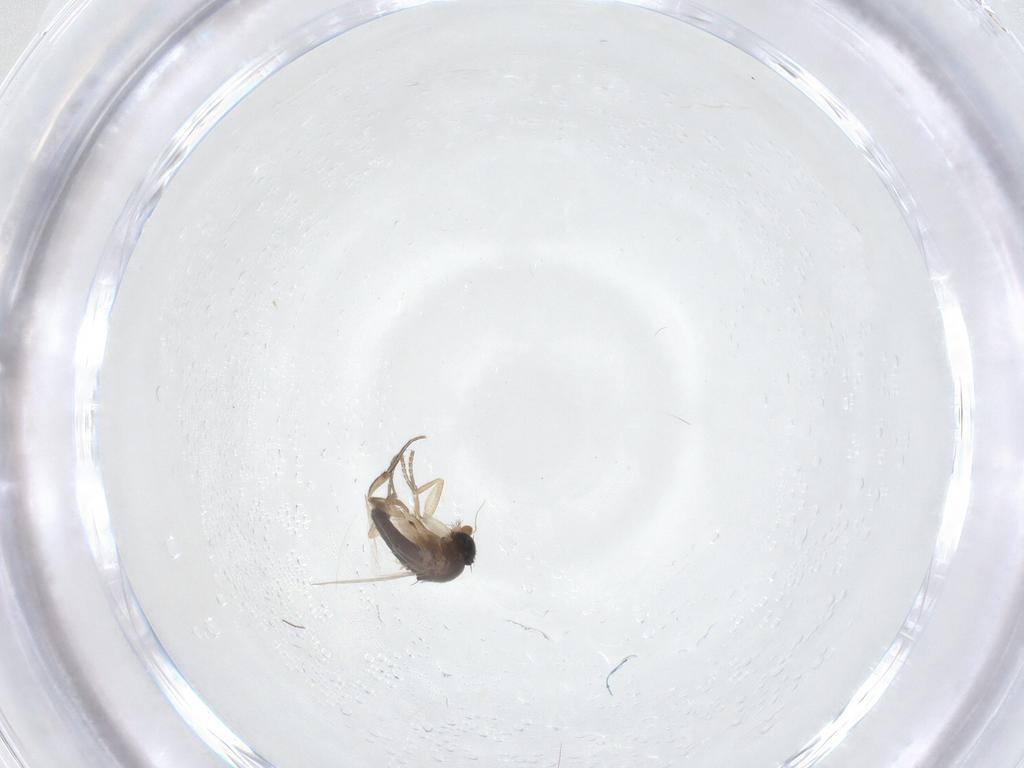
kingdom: Animalia
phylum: Arthropoda
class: Insecta
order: Diptera
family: Phoridae
